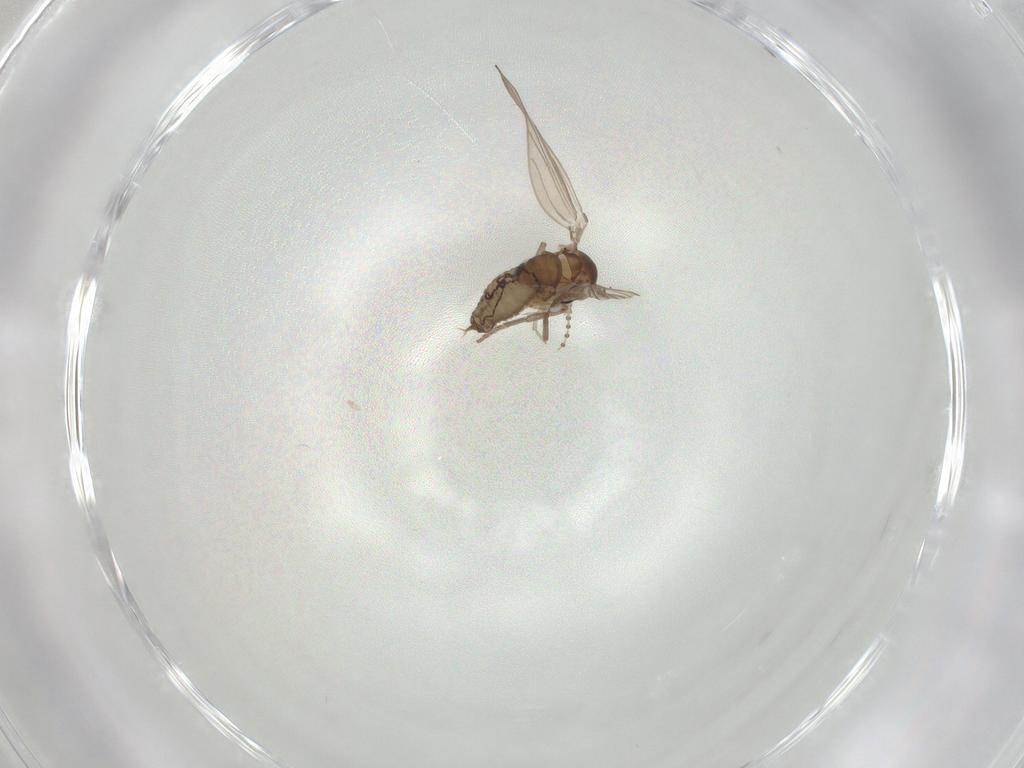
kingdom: Animalia
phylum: Arthropoda
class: Insecta
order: Diptera
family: Psychodidae
